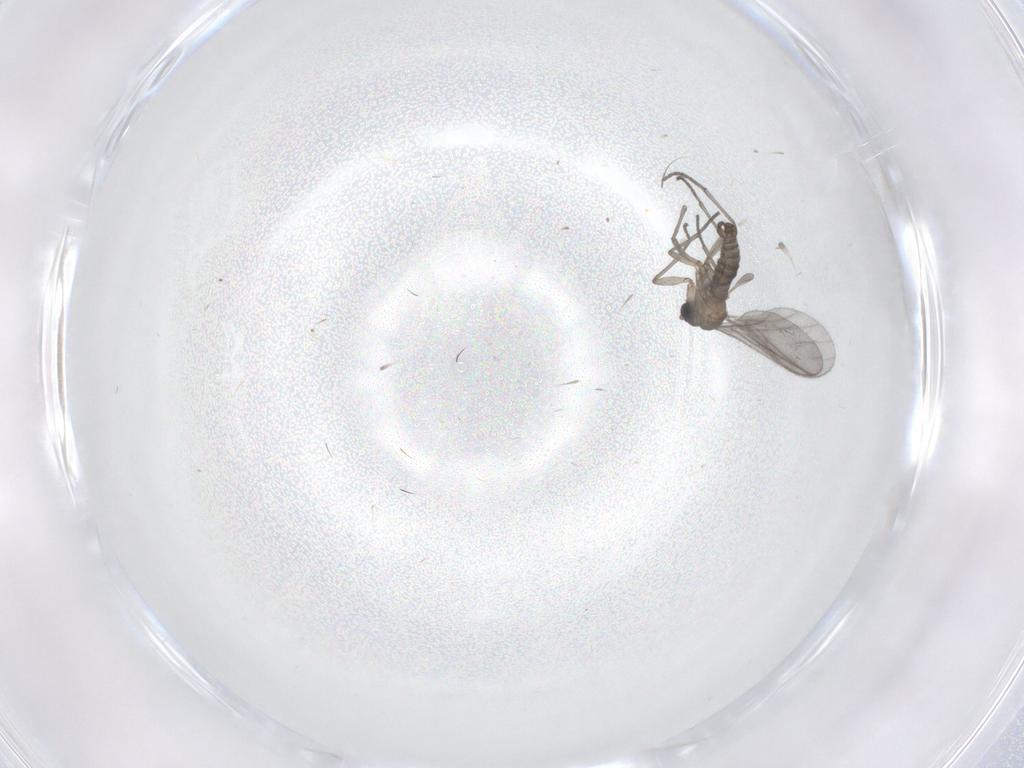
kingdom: Animalia
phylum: Arthropoda
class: Insecta
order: Diptera
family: Sciaridae
